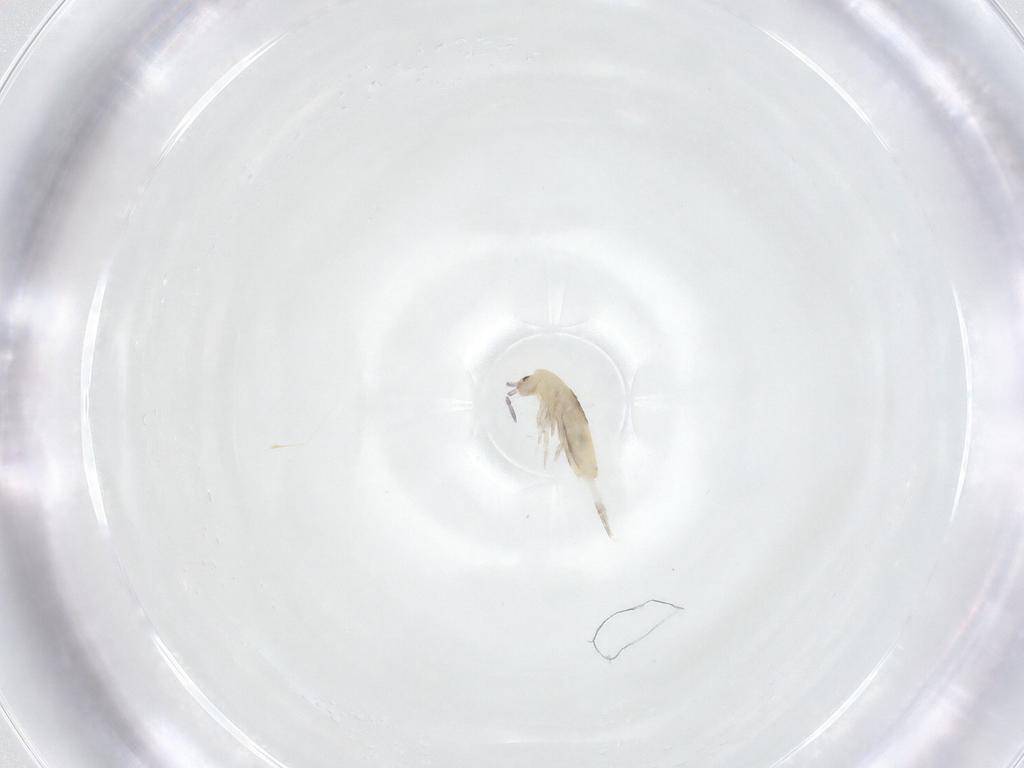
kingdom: Animalia
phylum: Arthropoda
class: Collembola
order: Entomobryomorpha
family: Entomobryidae
